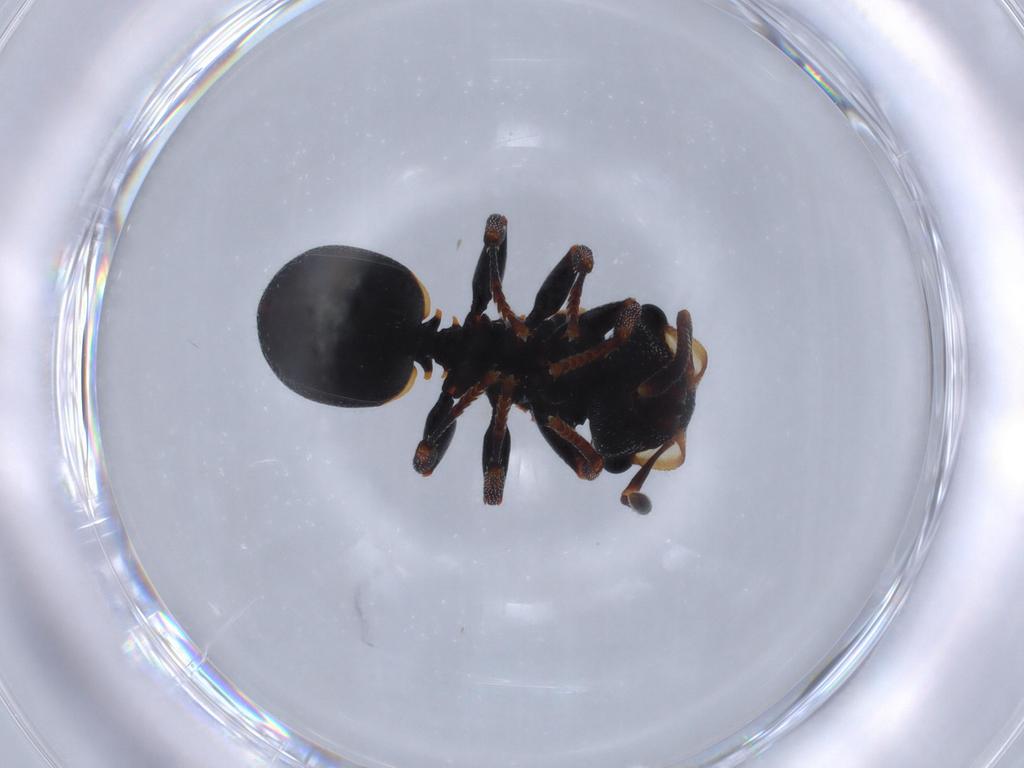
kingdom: Animalia
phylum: Arthropoda
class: Insecta
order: Hymenoptera
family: Formicidae
